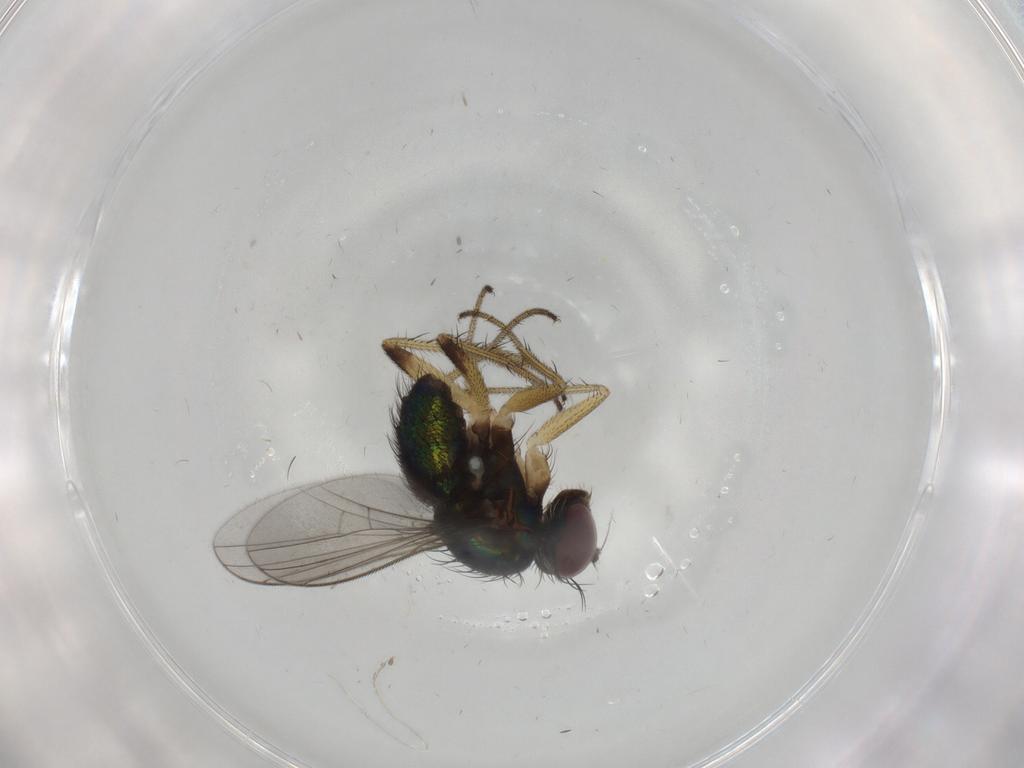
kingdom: Animalia
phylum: Arthropoda
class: Insecta
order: Diptera
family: Dolichopodidae
